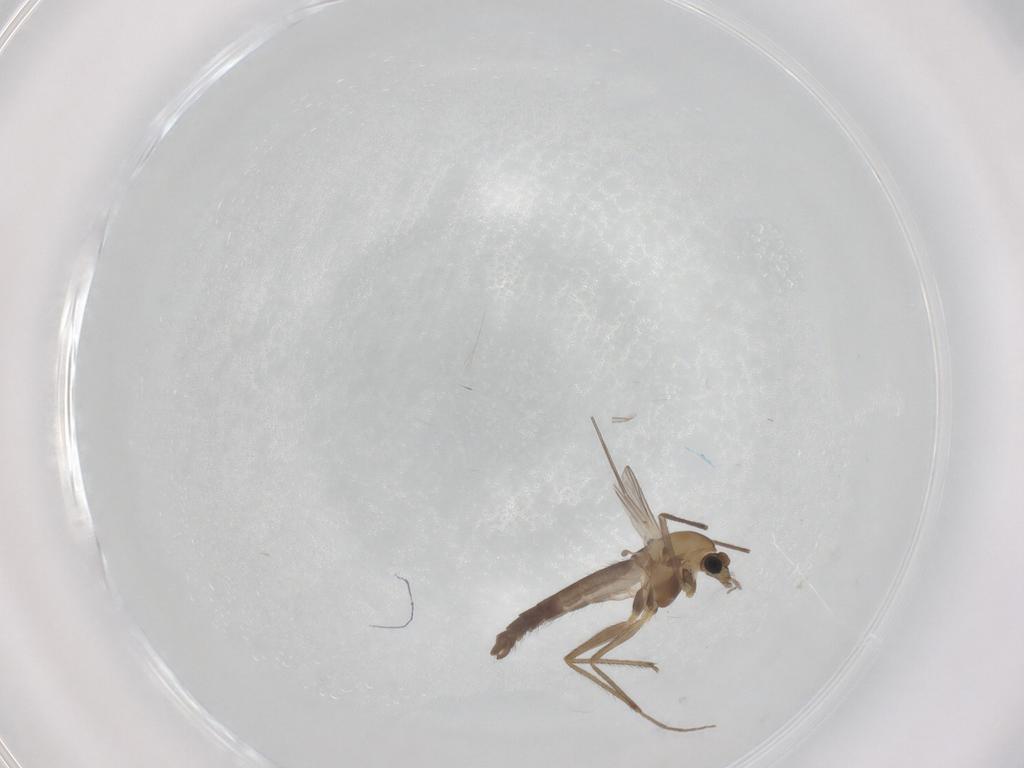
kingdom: Animalia
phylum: Arthropoda
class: Insecta
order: Diptera
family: Chironomidae
